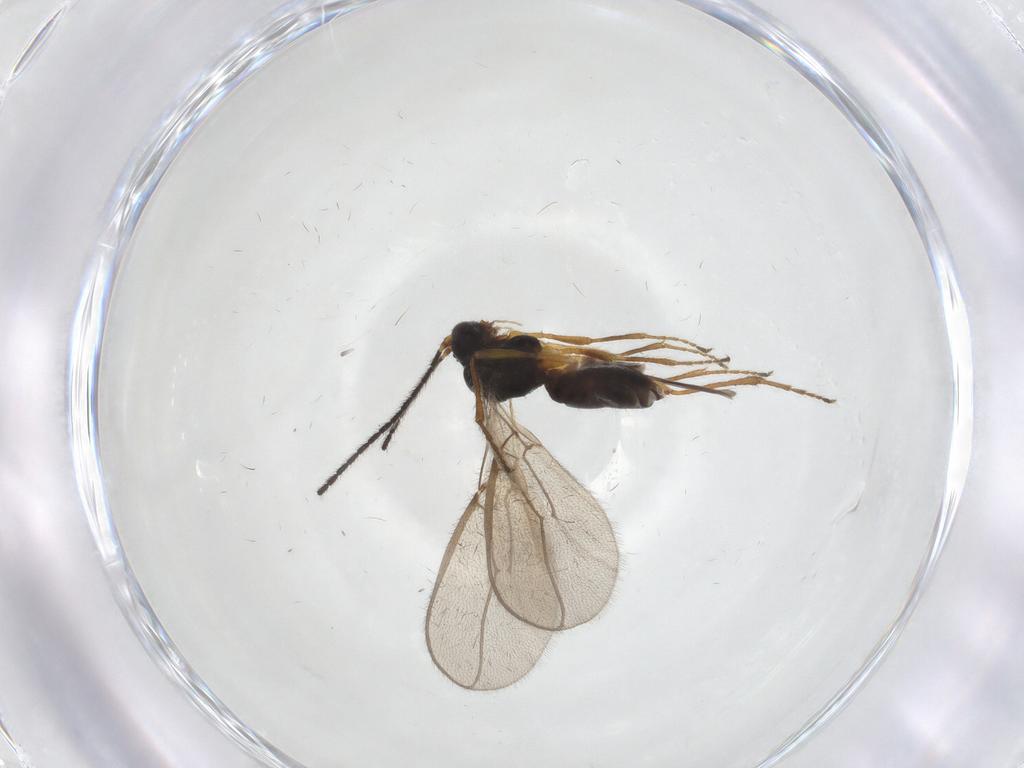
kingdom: Animalia
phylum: Arthropoda
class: Insecta
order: Hymenoptera
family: Braconidae
